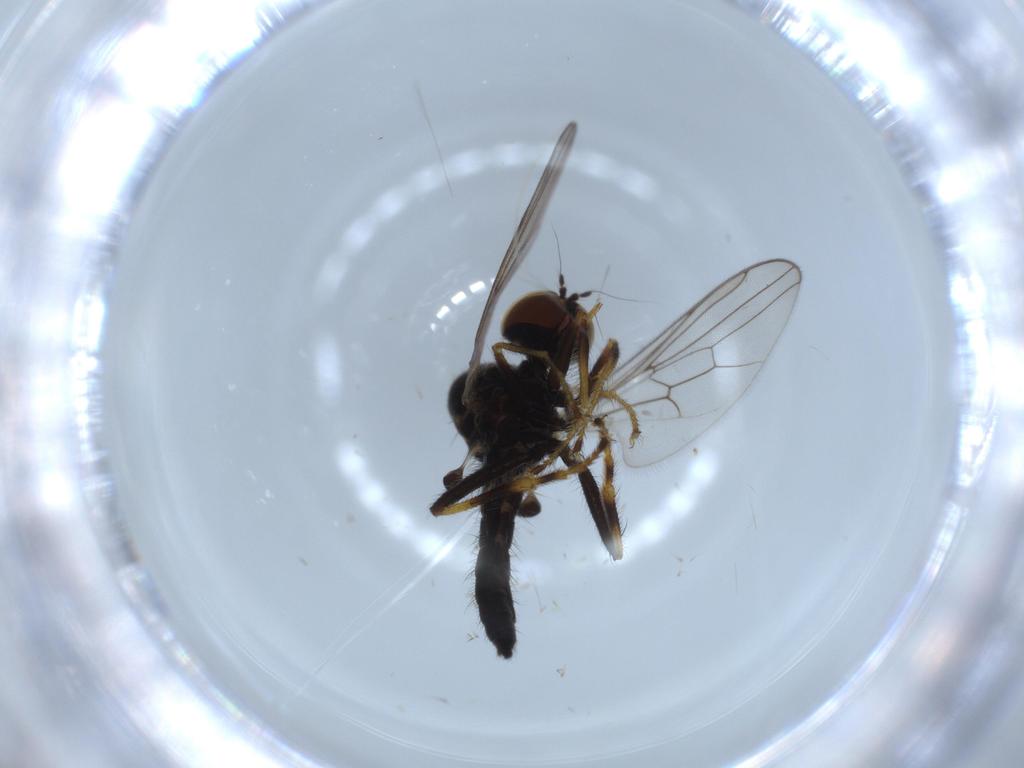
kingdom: Animalia
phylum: Arthropoda
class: Insecta
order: Diptera
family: Hybotidae
